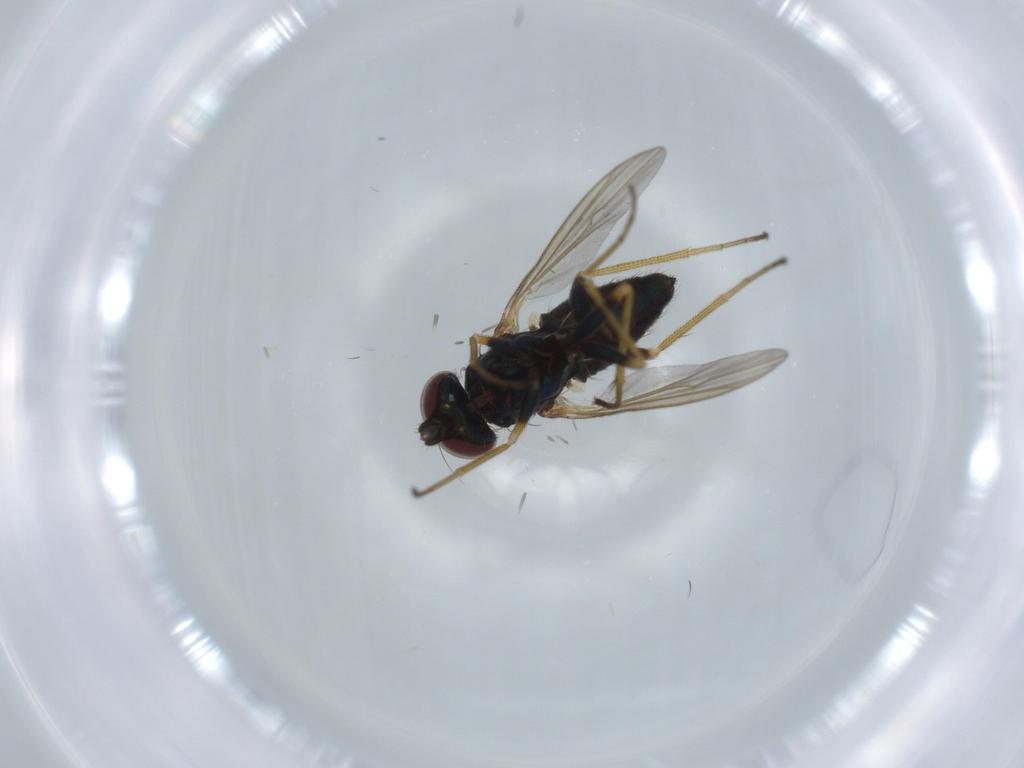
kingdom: Animalia
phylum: Arthropoda
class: Insecta
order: Diptera
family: Dolichopodidae
